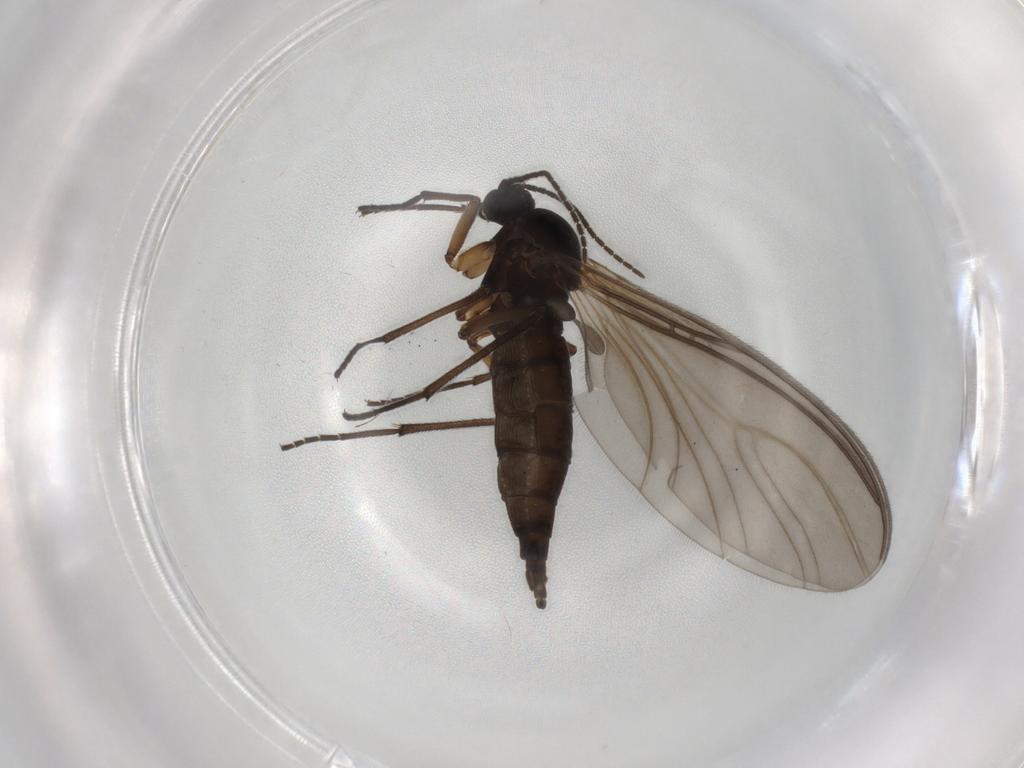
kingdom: Animalia
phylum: Arthropoda
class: Insecta
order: Diptera
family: Sciaridae
